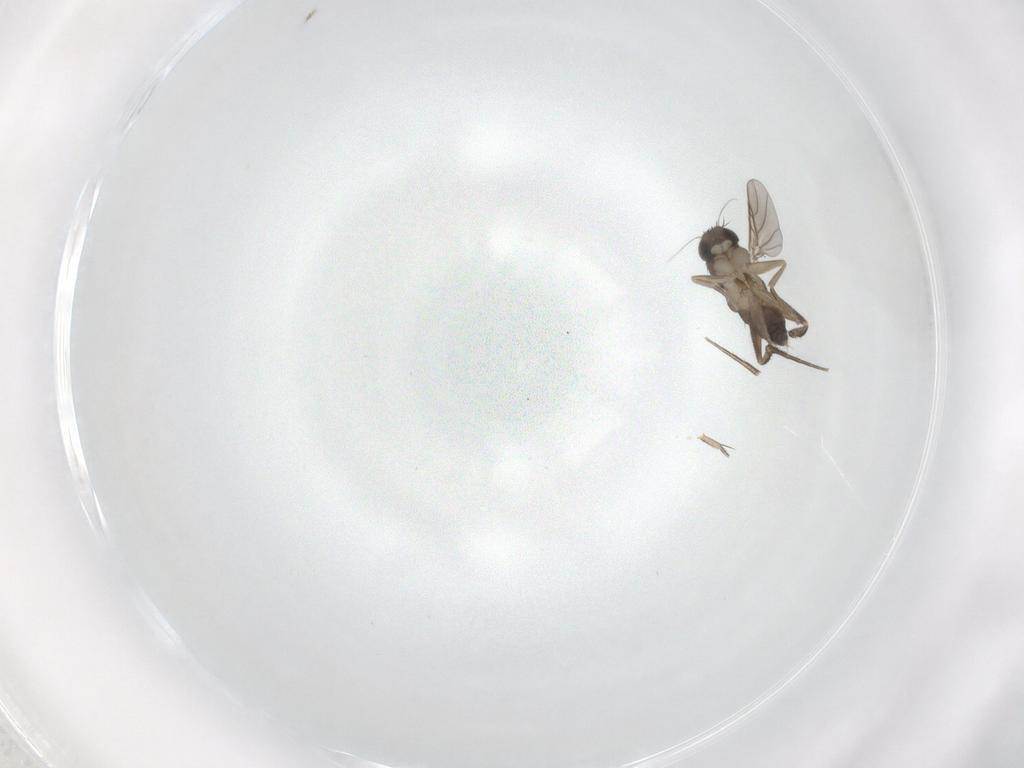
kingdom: Animalia
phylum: Arthropoda
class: Insecta
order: Diptera
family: Phoridae
